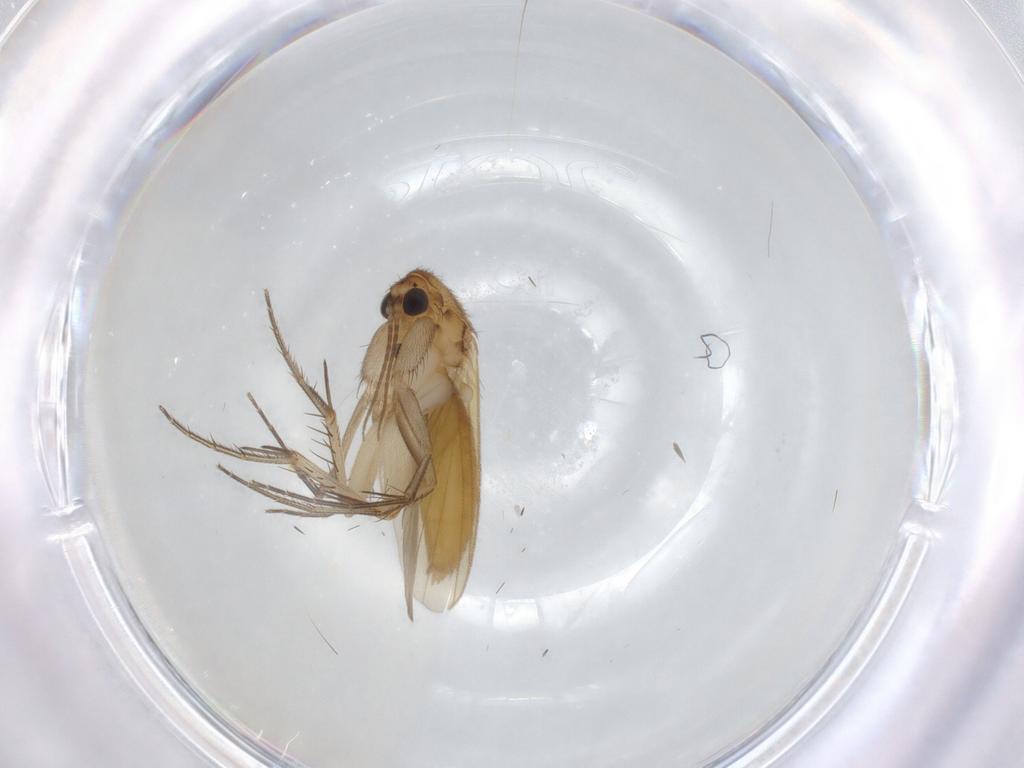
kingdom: Animalia
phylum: Arthropoda
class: Insecta
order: Diptera
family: Mycetophilidae
